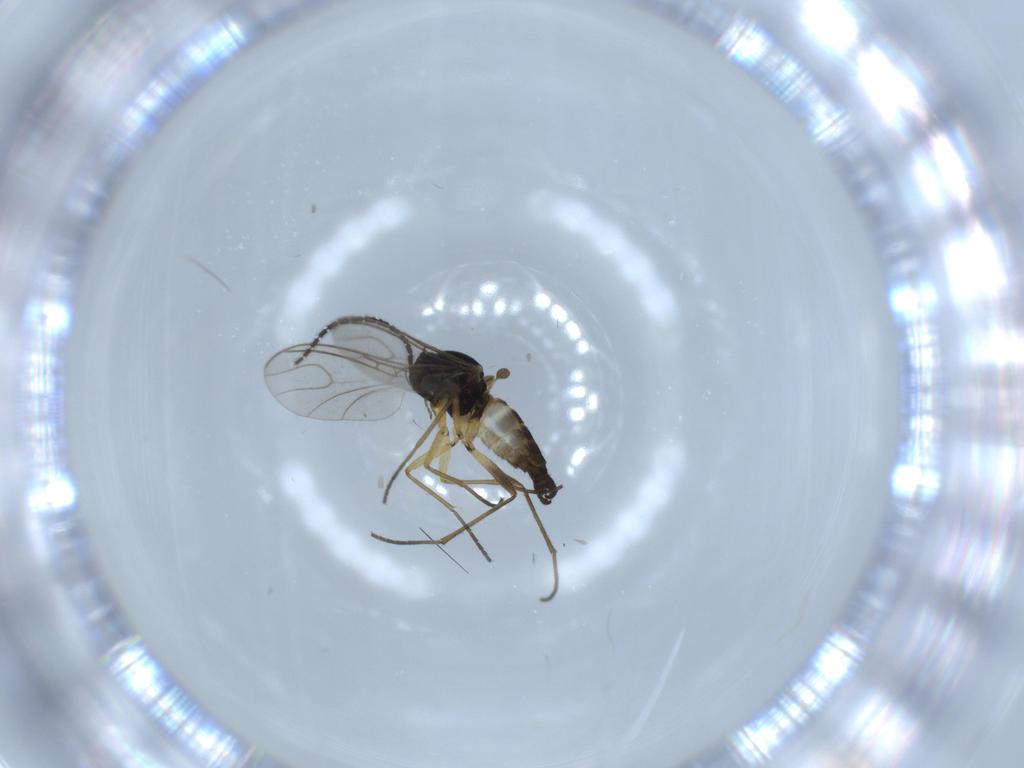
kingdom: Animalia
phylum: Arthropoda
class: Insecta
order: Diptera
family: Sciaridae
